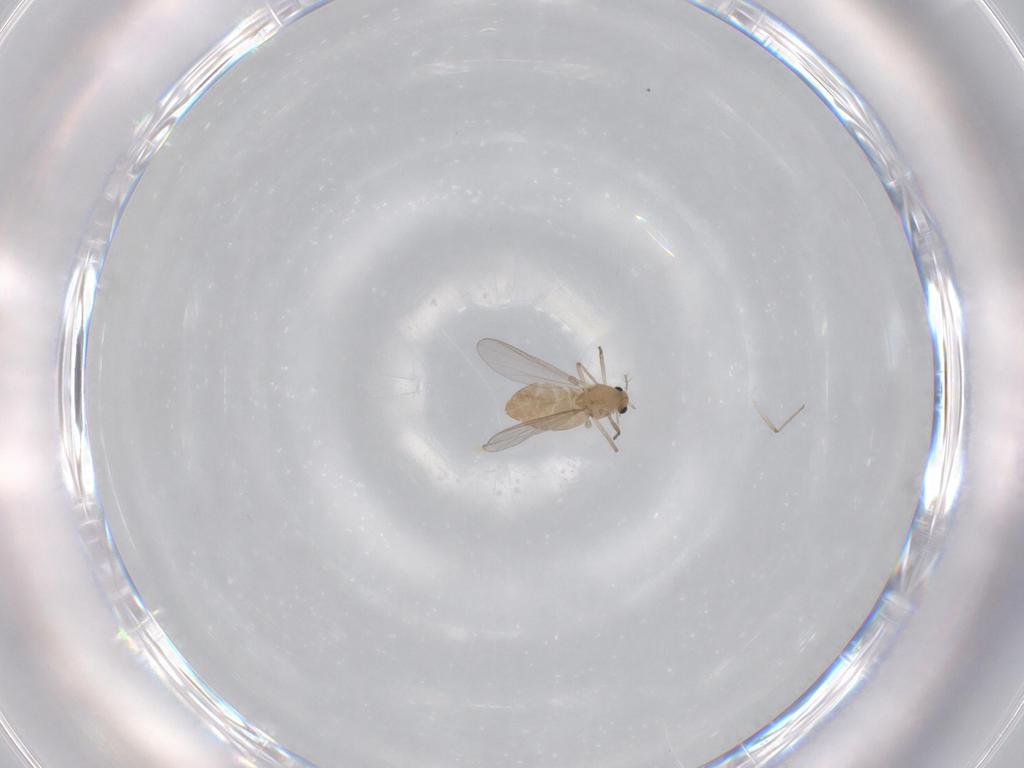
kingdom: Animalia
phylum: Arthropoda
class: Insecta
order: Diptera
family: Chironomidae
